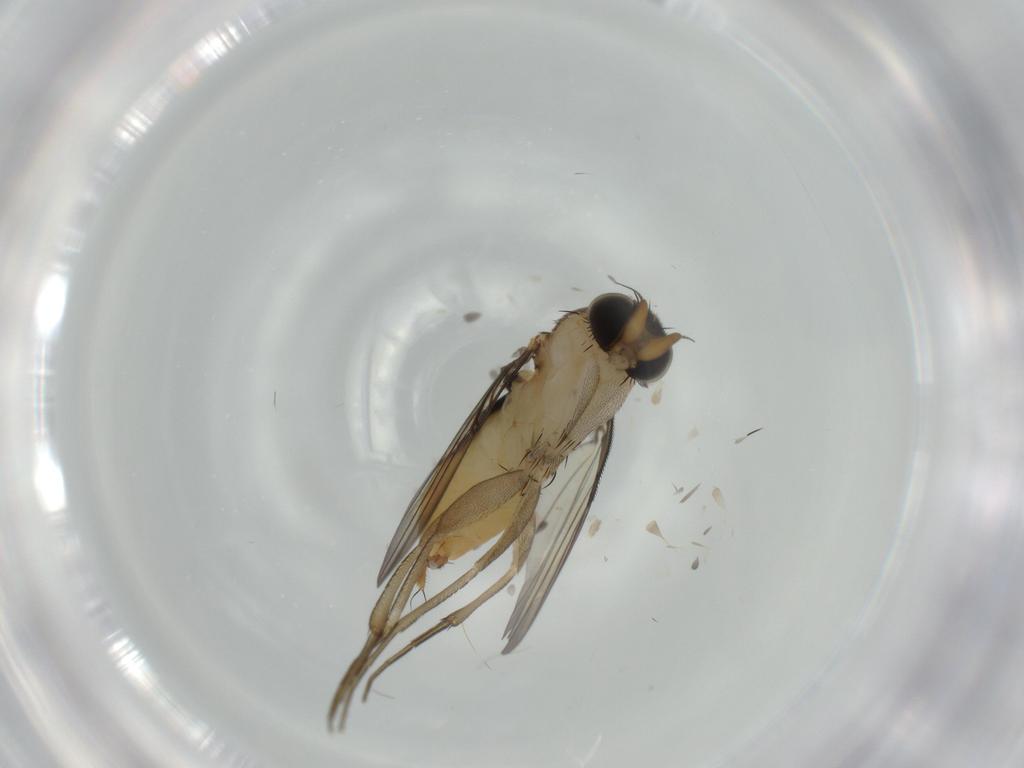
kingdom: Animalia
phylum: Arthropoda
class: Insecta
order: Diptera
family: Phoridae
